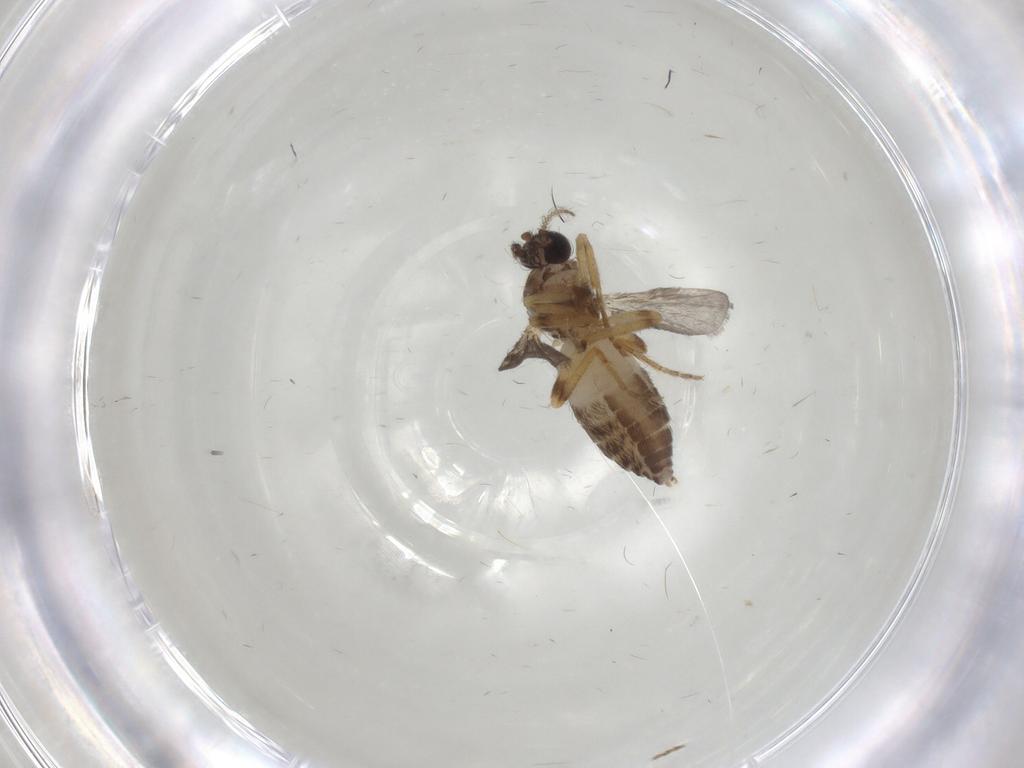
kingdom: Animalia
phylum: Arthropoda
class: Insecta
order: Diptera
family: Ceratopogonidae
